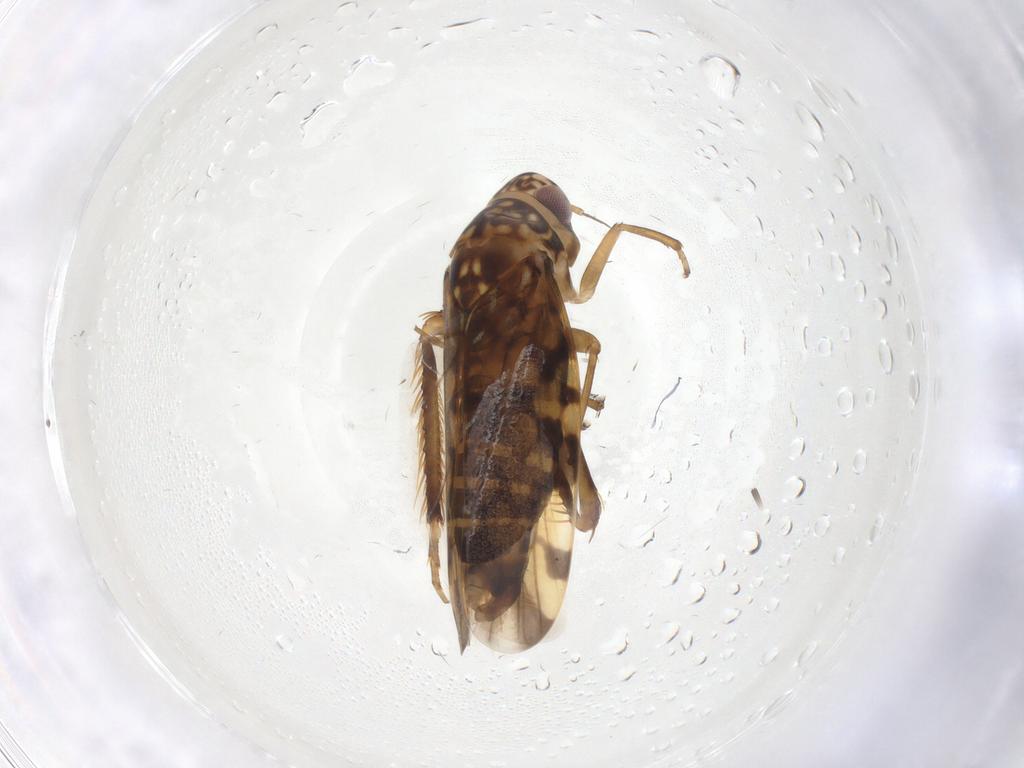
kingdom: Animalia
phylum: Arthropoda
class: Insecta
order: Hemiptera
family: Cicadellidae
